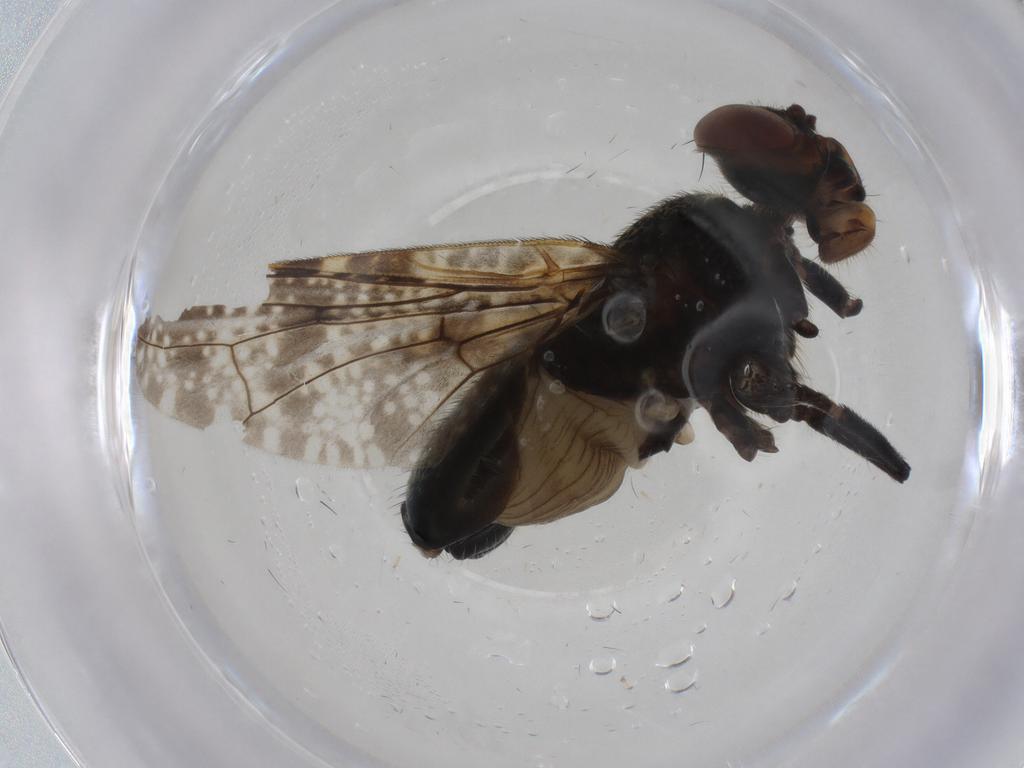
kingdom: Animalia
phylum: Arthropoda
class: Insecta
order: Diptera
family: Platystomatidae
